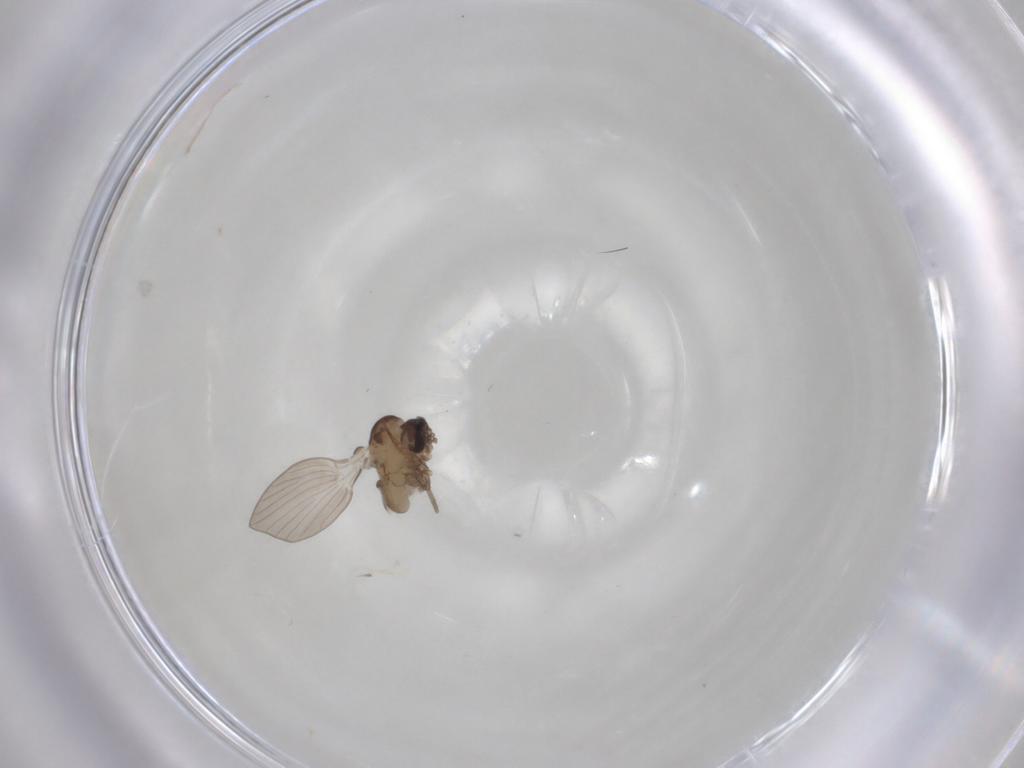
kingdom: Animalia
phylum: Arthropoda
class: Insecta
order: Diptera
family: Psychodidae
